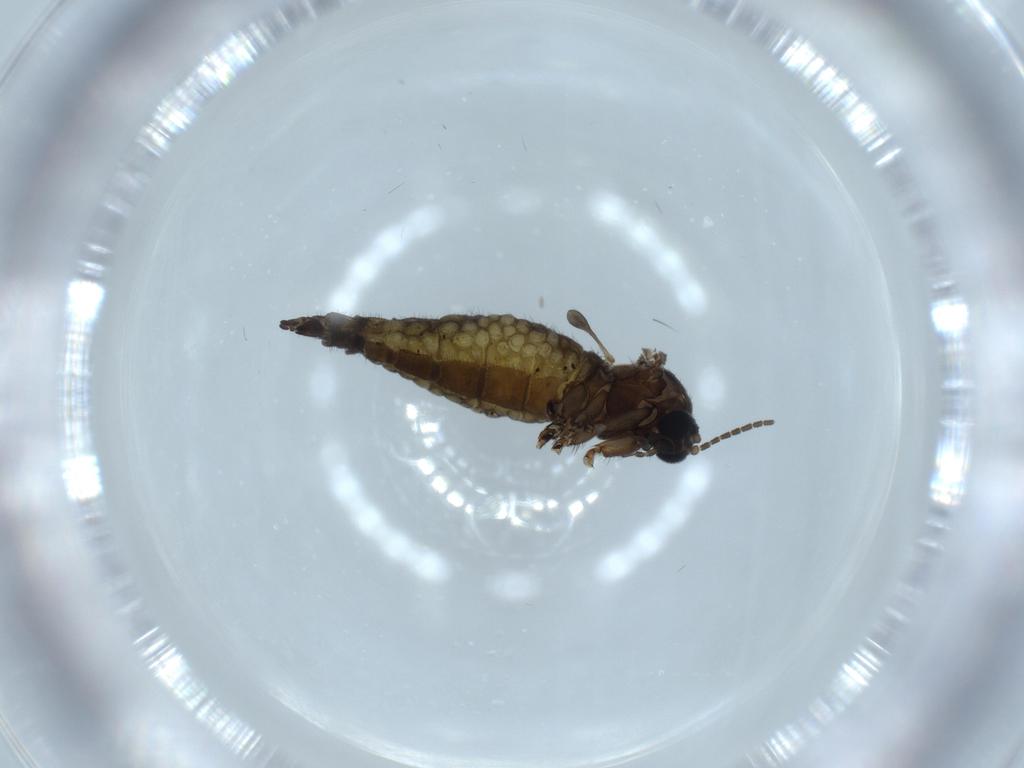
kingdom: Animalia
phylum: Arthropoda
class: Insecta
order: Diptera
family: Sciaridae
